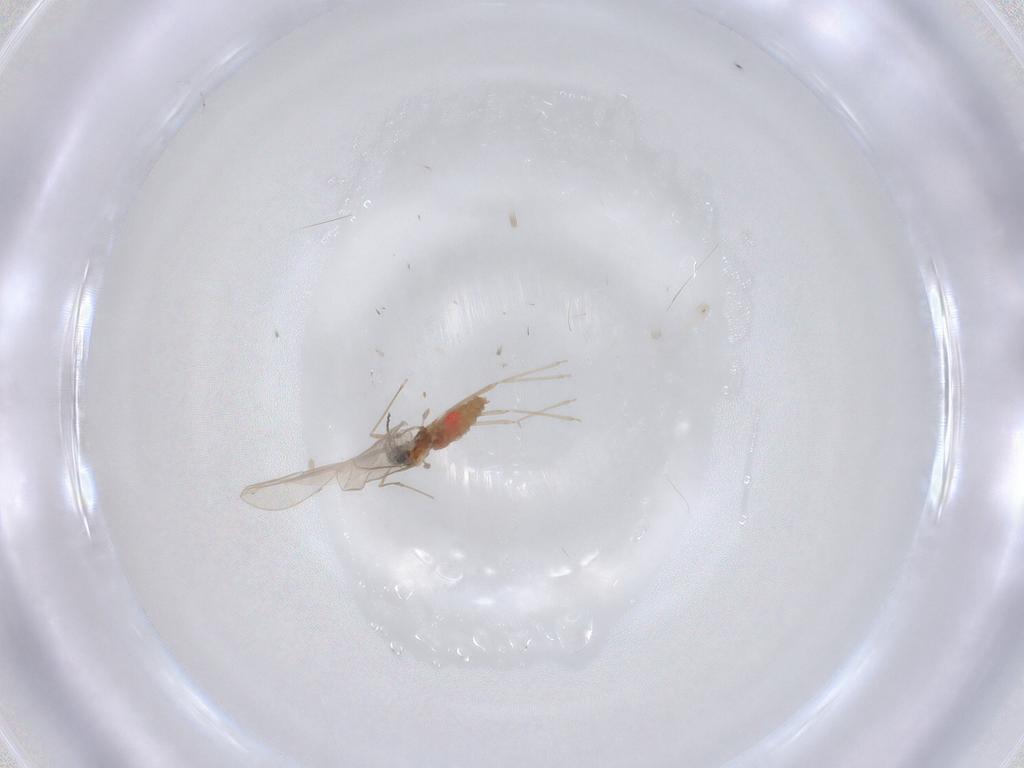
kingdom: Animalia
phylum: Arthropoda
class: Insecta
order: Diptera
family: Cecidomyiidae
